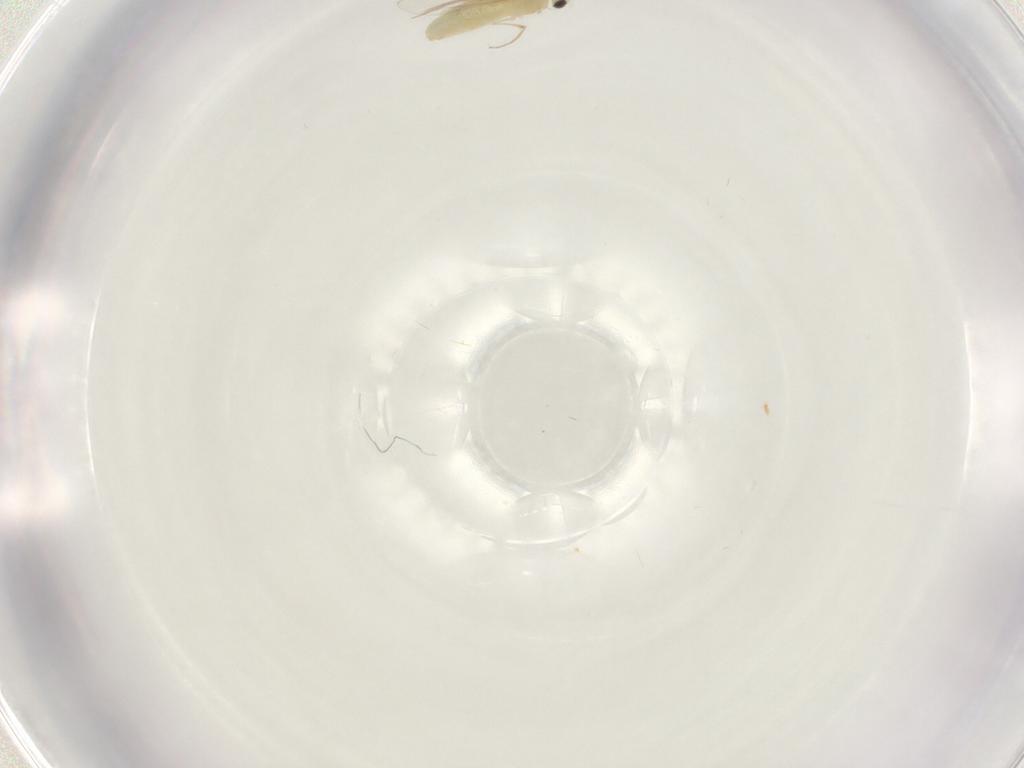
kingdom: Animalia
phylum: Arthropoda
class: Insecta
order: Diptera
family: Chironomidae
